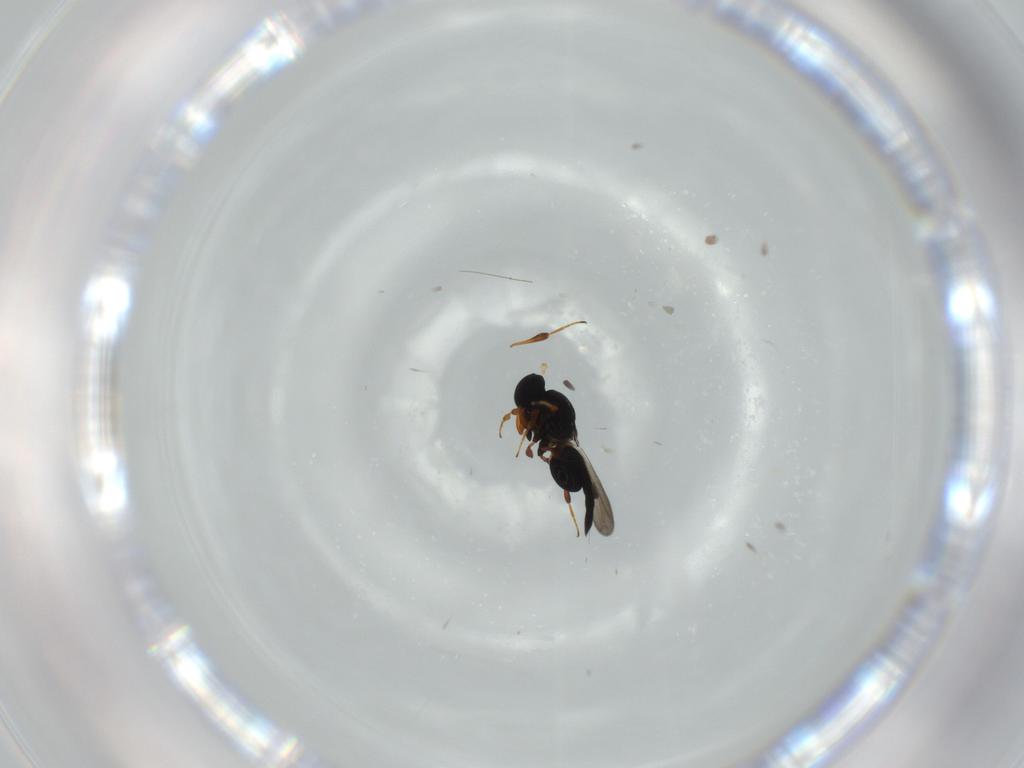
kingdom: Animalia
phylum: Arthropoda
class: Insecta
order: Hymenoptera
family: Platygastridae
